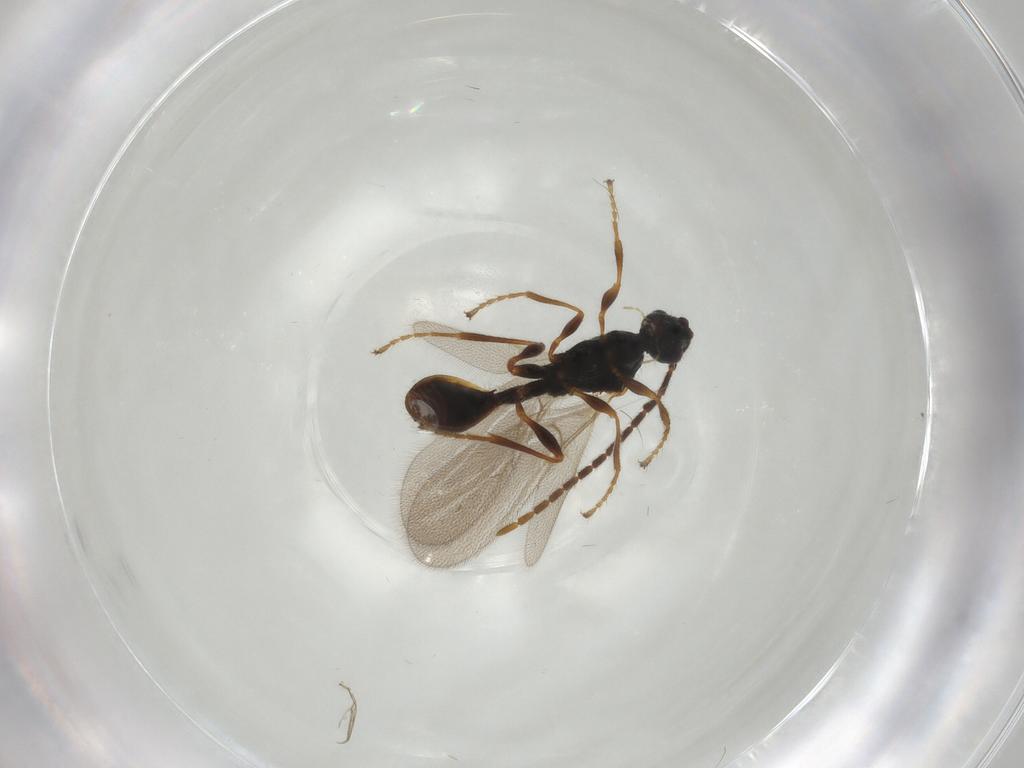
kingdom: Animalia
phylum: Arthropoda
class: Insecta
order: Hymenoptera
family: Diapriidae
